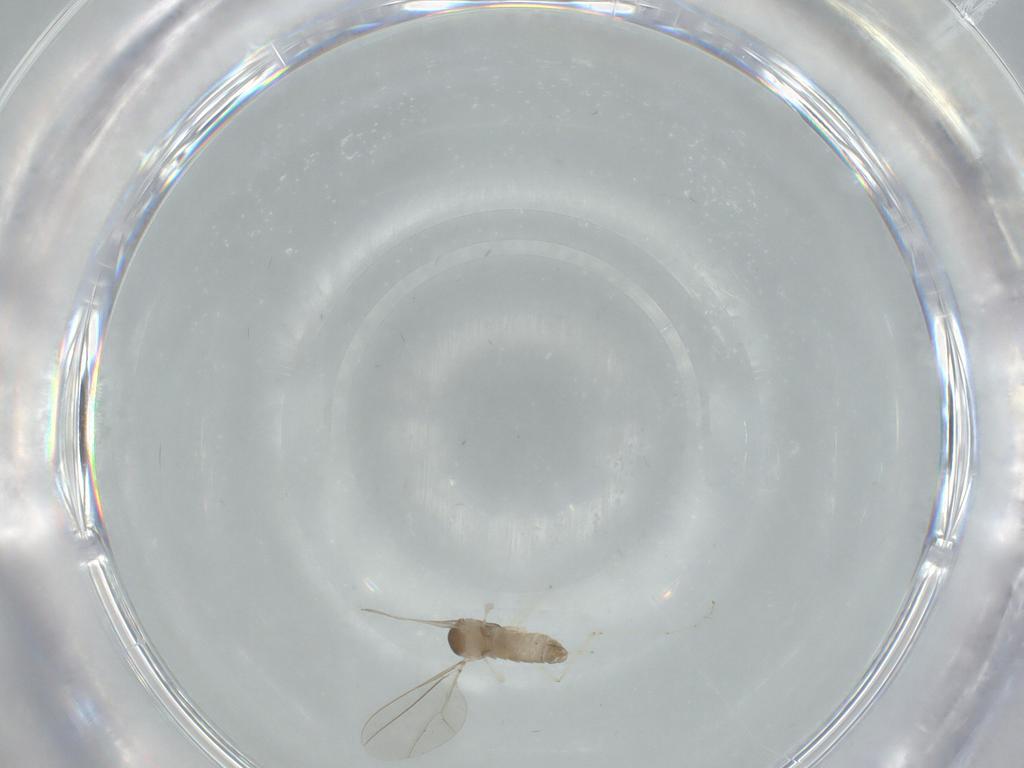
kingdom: Animalia
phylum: Arthropoda
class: Insecta
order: Diptera
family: Cecidomyiidae
